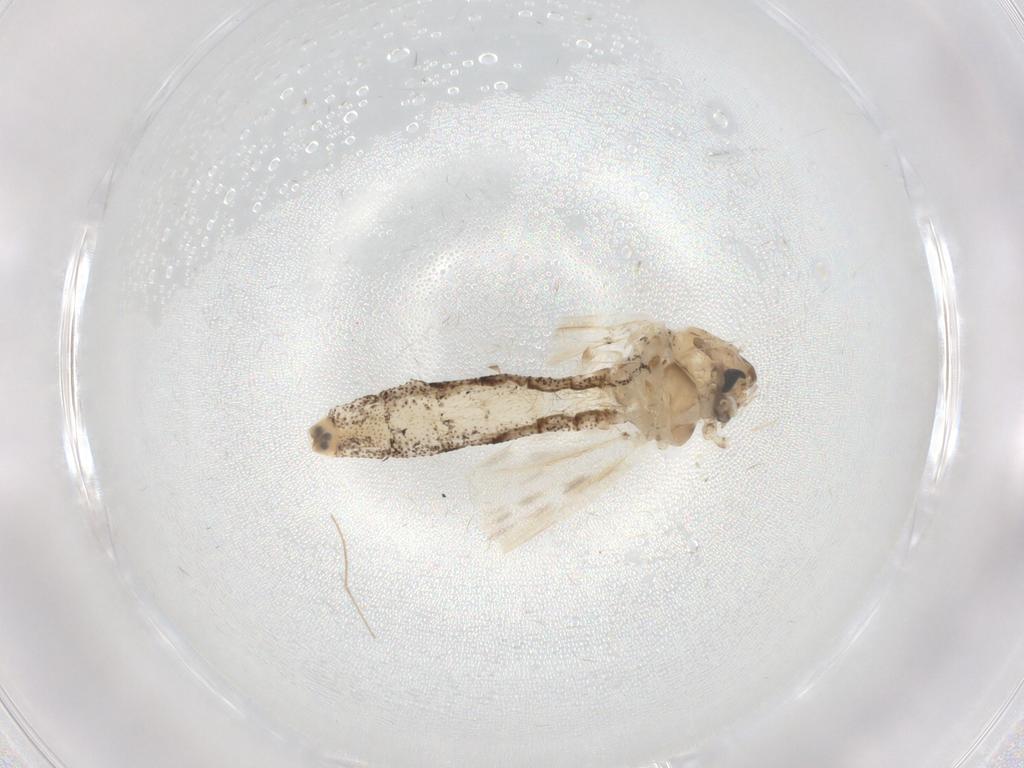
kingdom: Animalia
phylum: Arthropoda
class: Insecta
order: Diptera
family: Chaoboridae
